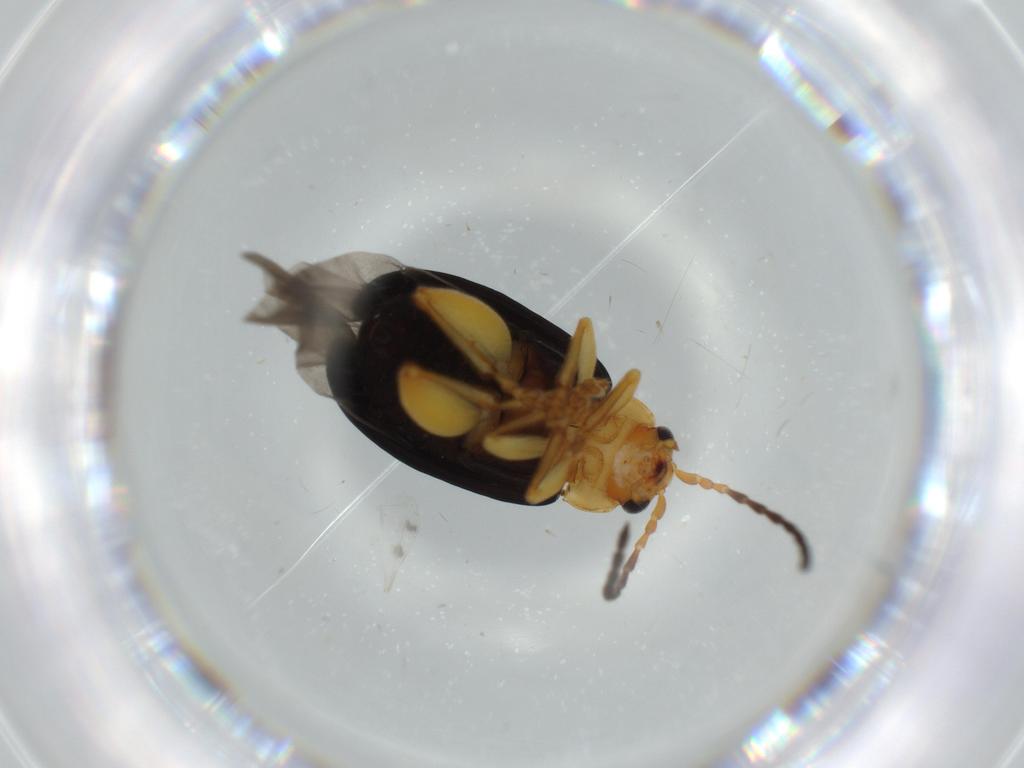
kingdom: Animalia
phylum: Arthropoda
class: Insecta
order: Coleoptera
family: Chrysomelidae
